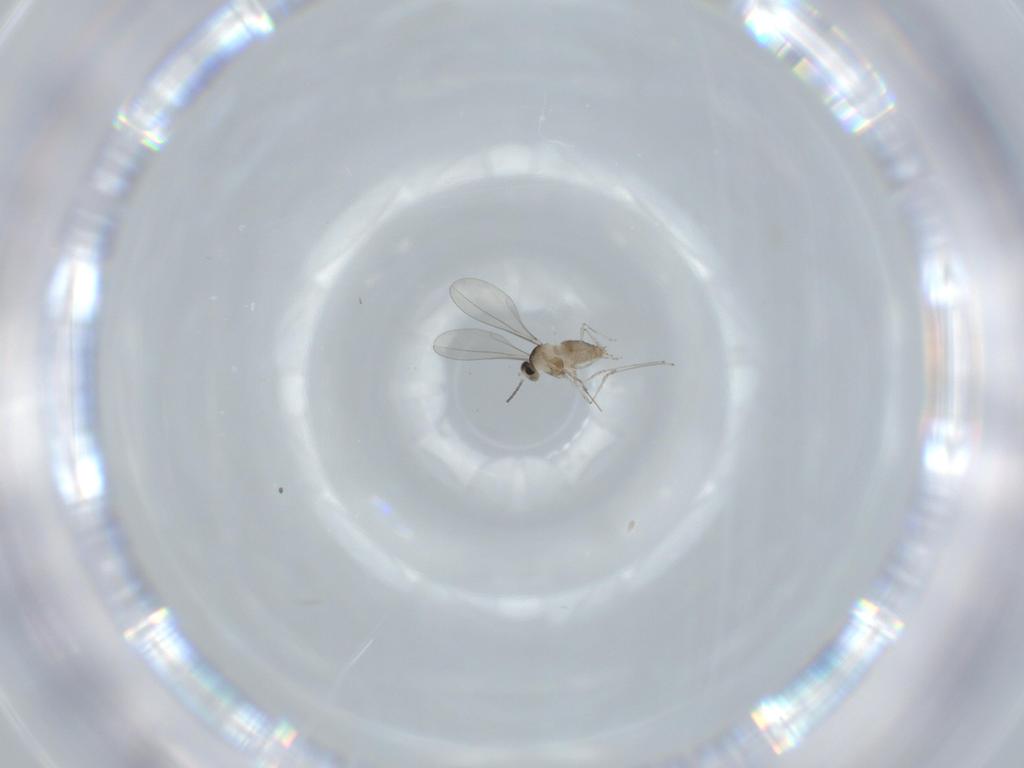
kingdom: Animalia
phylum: Arthropoda
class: Insecta
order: Diptera
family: Cecidomyiidae
